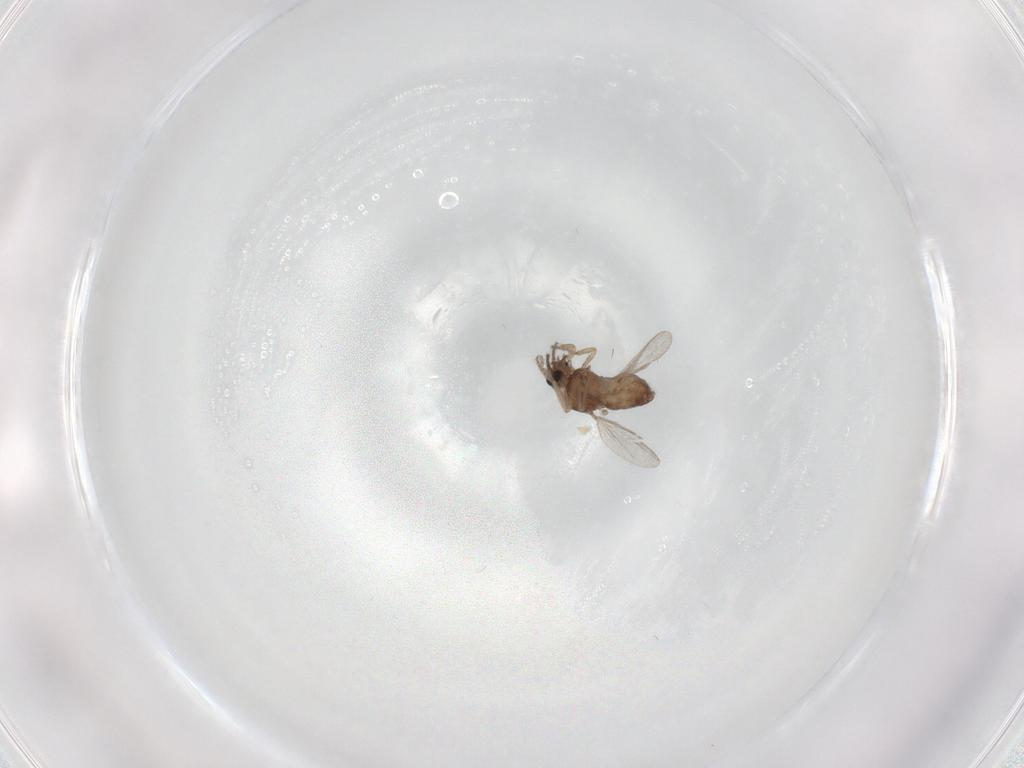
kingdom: Animalia
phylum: Arthropoda
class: Insecta
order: Diptera
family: Ceratopogonidae
